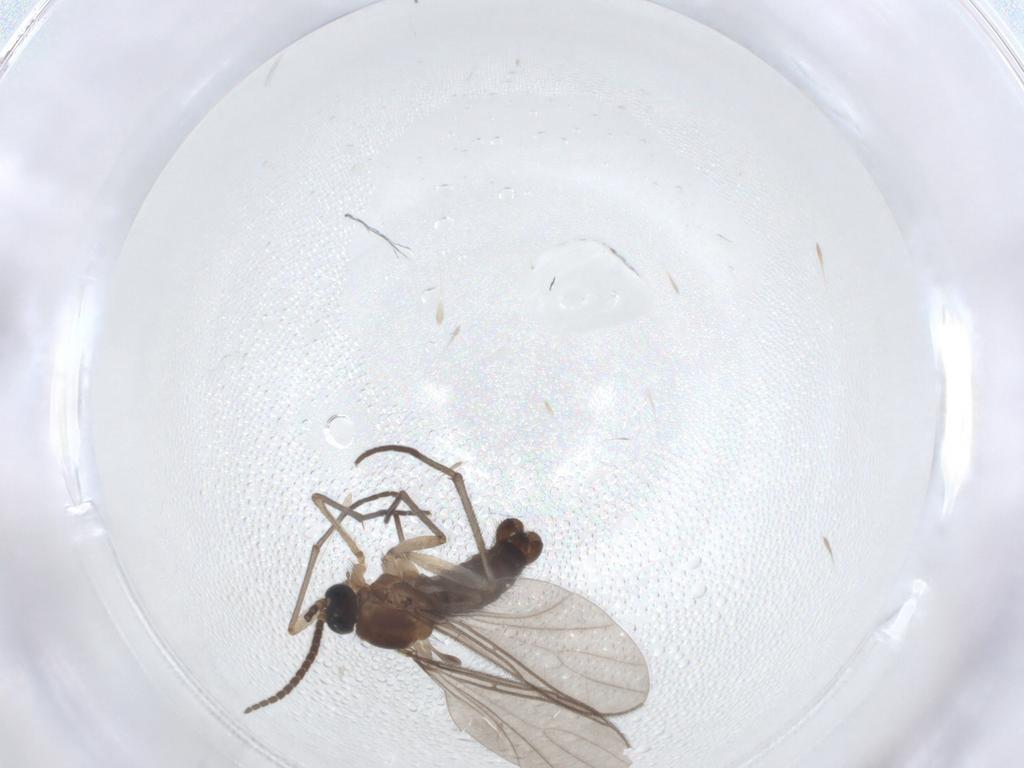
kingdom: Animalia
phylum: Arthropoda
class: Insecta
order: Diptera
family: Sciaridae
